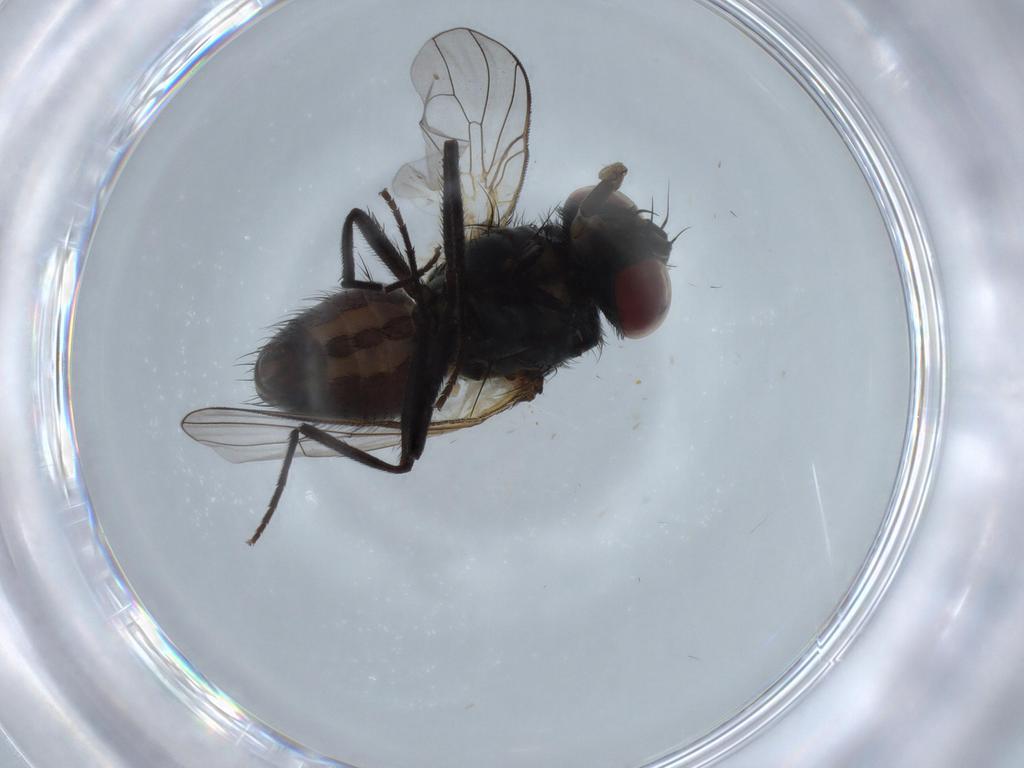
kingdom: Animalia
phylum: Arthropoda
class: Insecta
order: Diptera
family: Muscidae
